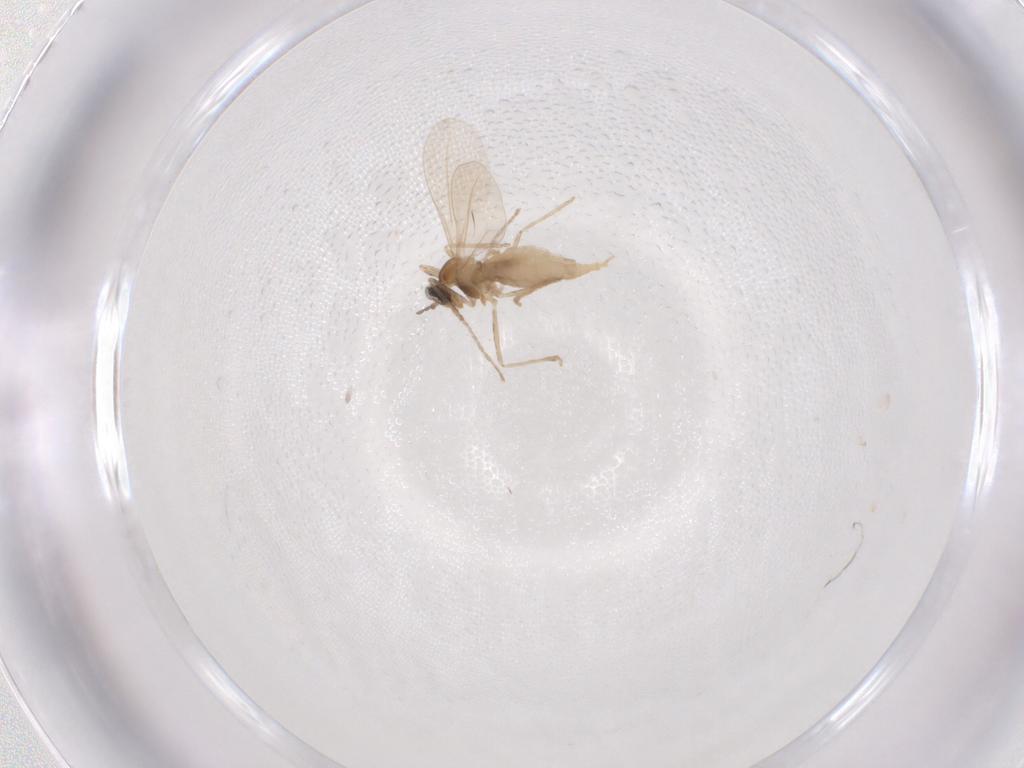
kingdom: Animalia
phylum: Arthropoda
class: Insecta
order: Diptera
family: Cecidomyiidae
